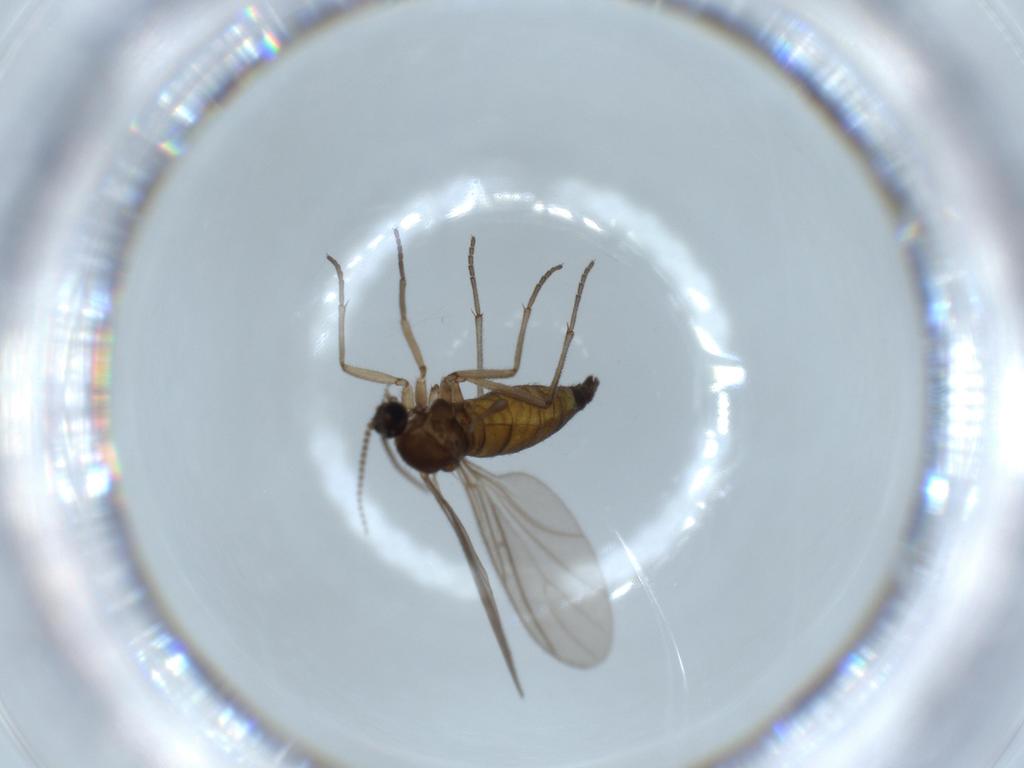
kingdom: Animalia
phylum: Arthropoda
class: Insecta
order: Diptera
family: Sciaridae
